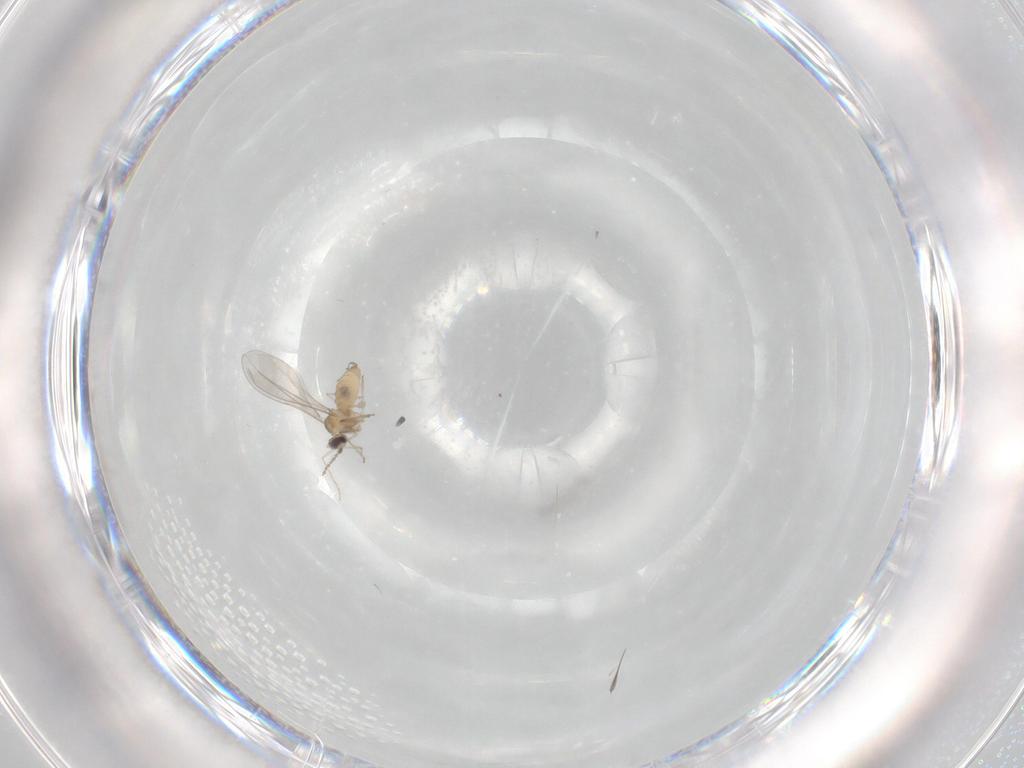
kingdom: Animalia
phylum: Arthropoda
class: Insecta
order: Diptera
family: Cecidomyiidae
